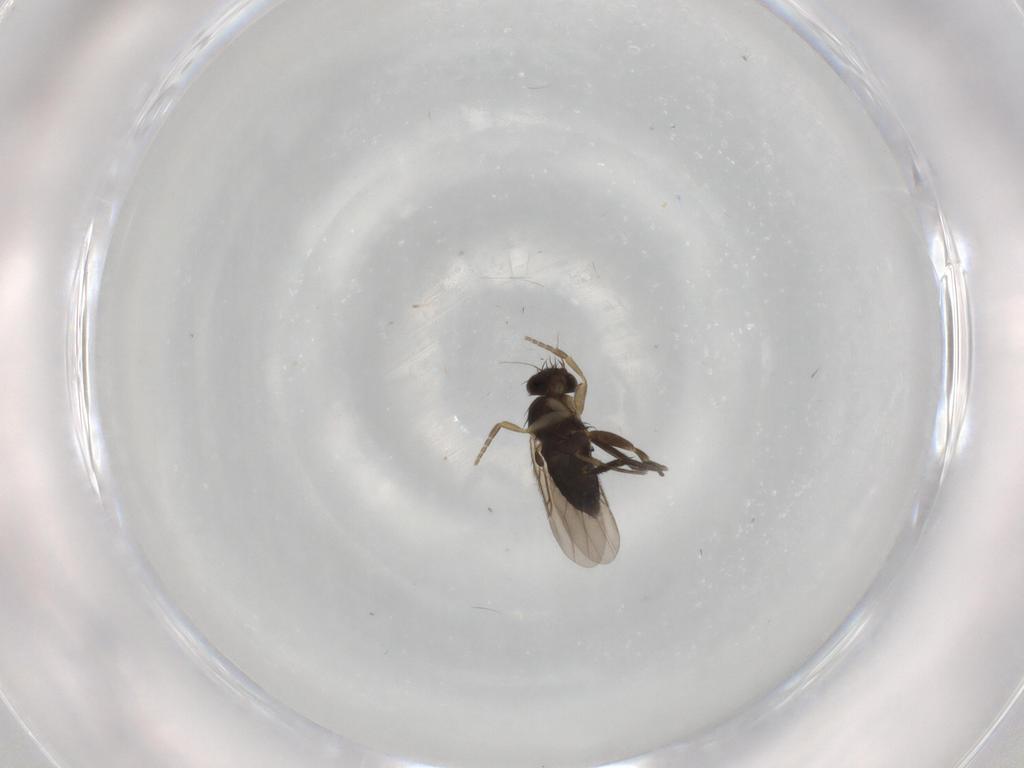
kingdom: Animalia
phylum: Arthropoda
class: Insecta
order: Diptera
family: Phoridae
